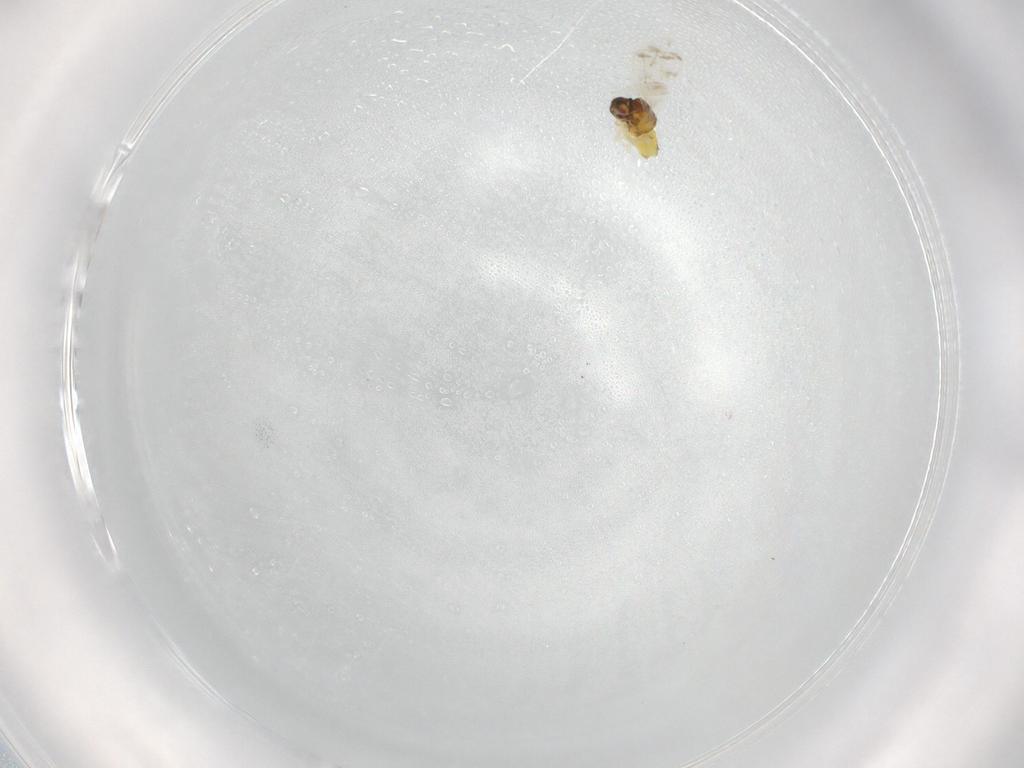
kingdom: Animalia
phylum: Arthropoda
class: Insecta
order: Hemiptera
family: Aleyrodidae
